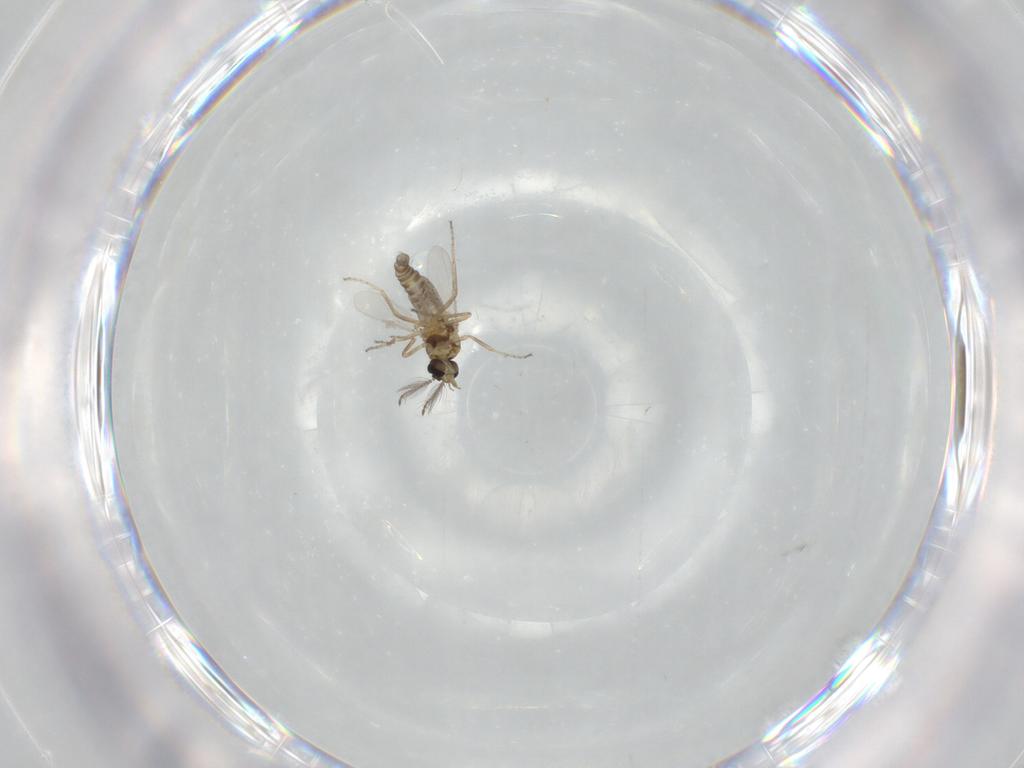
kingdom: Animalia
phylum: Arthropoda
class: Insecta
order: Diptera
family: Ceratopogonidae
